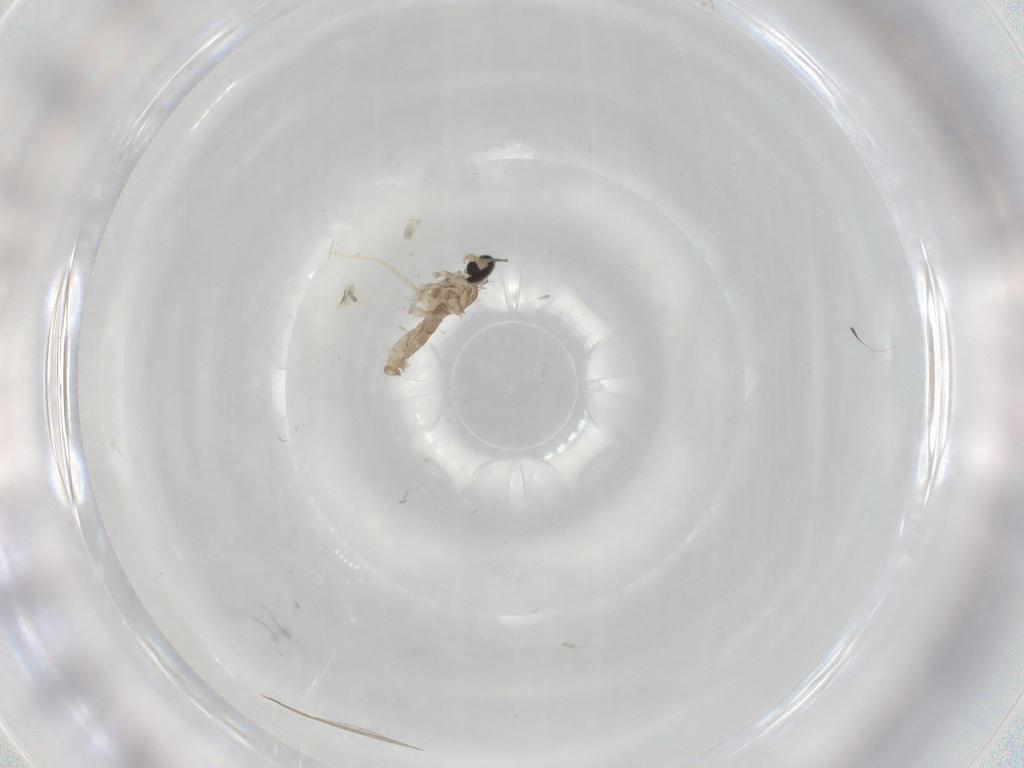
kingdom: Animalia
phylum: Arthropoda
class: Insecta
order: Diptera
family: Cecidomyiidae
